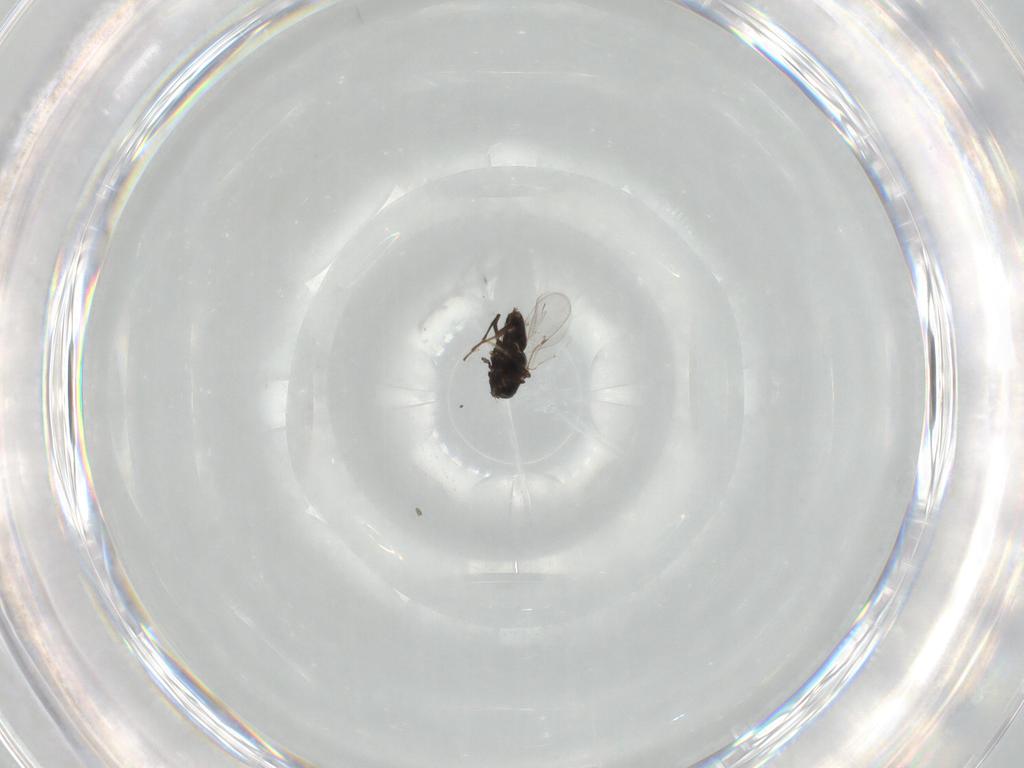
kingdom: Animalia
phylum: Arthropoda
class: Insecta
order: Hymenoptera
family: Encyrtidae
